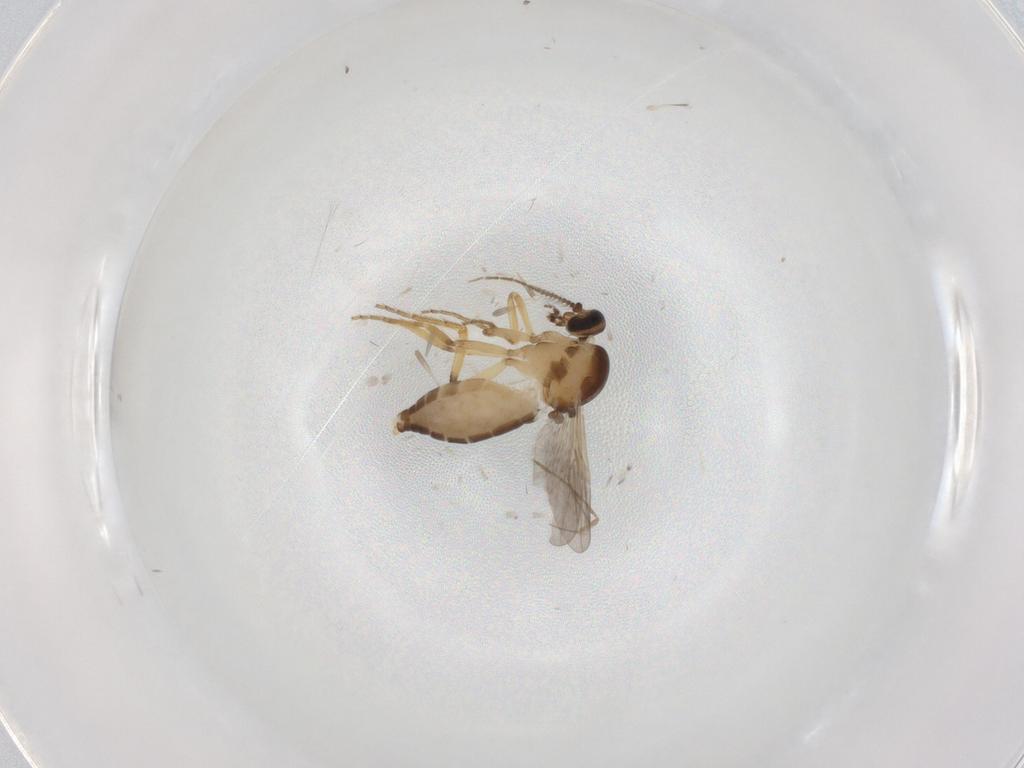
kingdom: Animalia
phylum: Arthropoda
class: Insecta
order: Diptera
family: Ceratopogonidae
